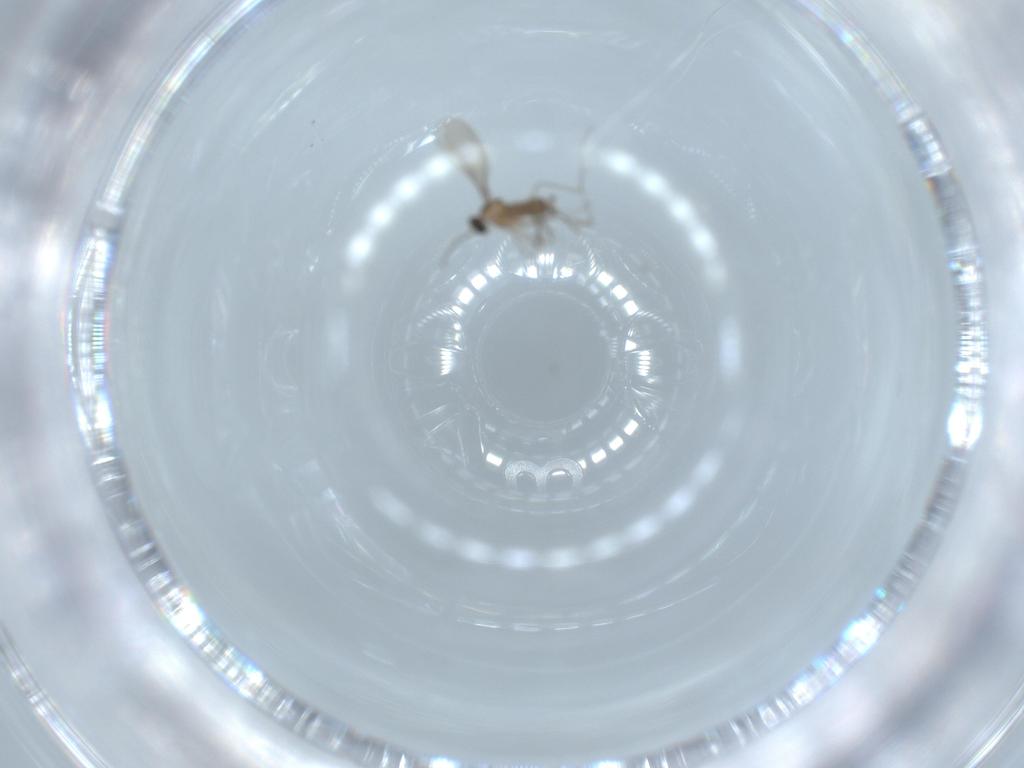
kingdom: Animalia
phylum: Arthropoda
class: Insecta
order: Diptera
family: Cecidomyiidae
